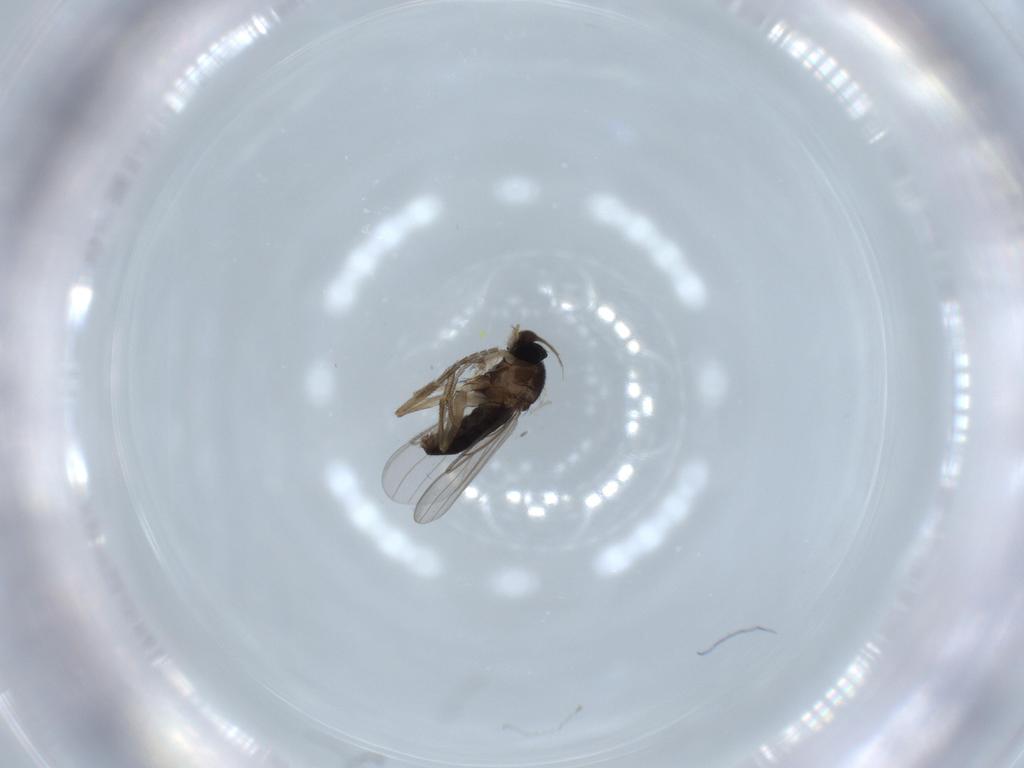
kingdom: Animalia
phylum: Arthropoda
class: Insecta
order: Diptera
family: Phoridae
